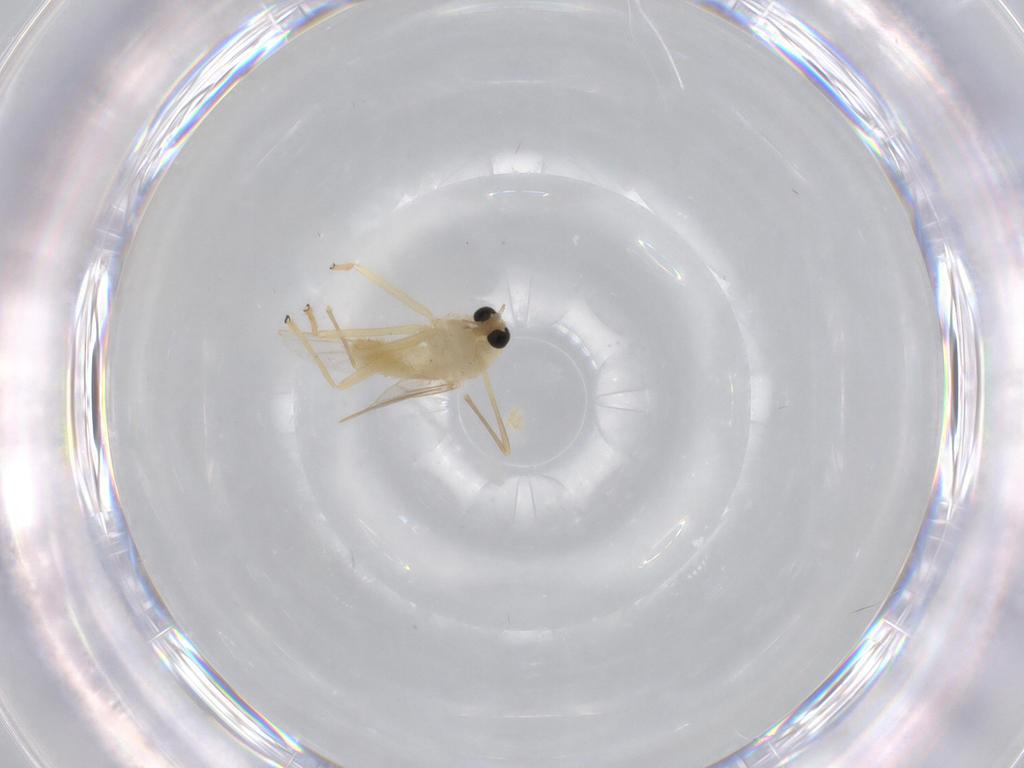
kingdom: Animalia
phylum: Arthropoda
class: Insecta
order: Diptera
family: Chironomidae
